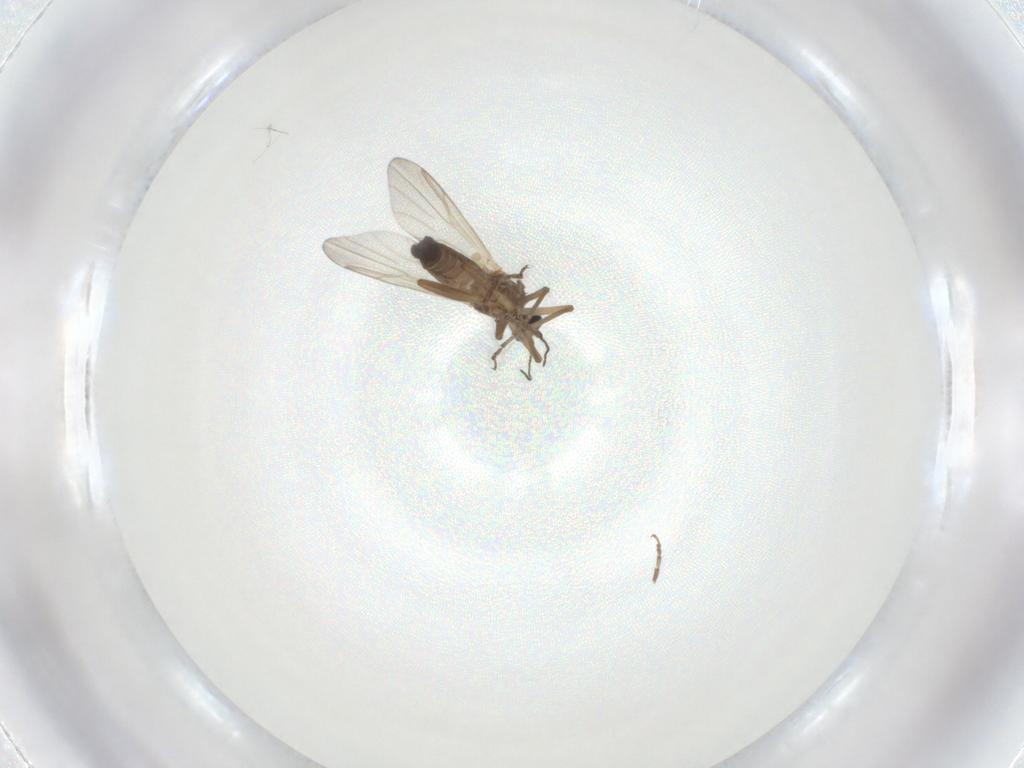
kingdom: Animalia
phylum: Arthropoda
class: Insecta
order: Diptera
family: Ceratopogonidae
